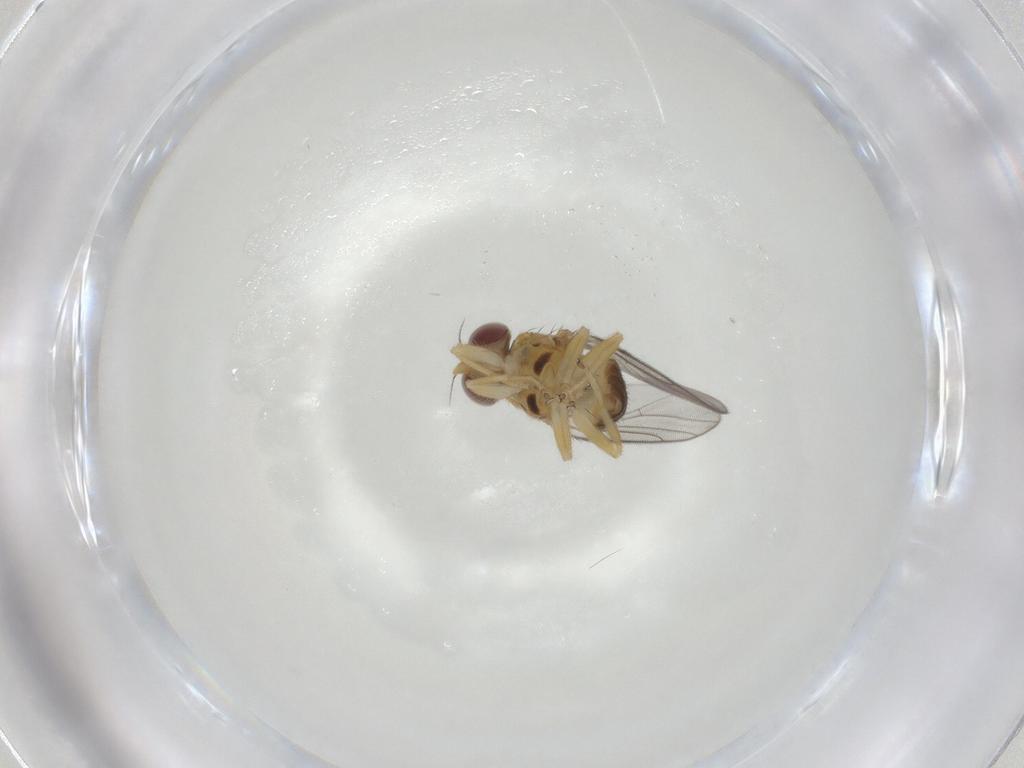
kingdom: Animalia
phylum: Arthropoda
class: Insecta
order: Diptera
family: Chloropidae
